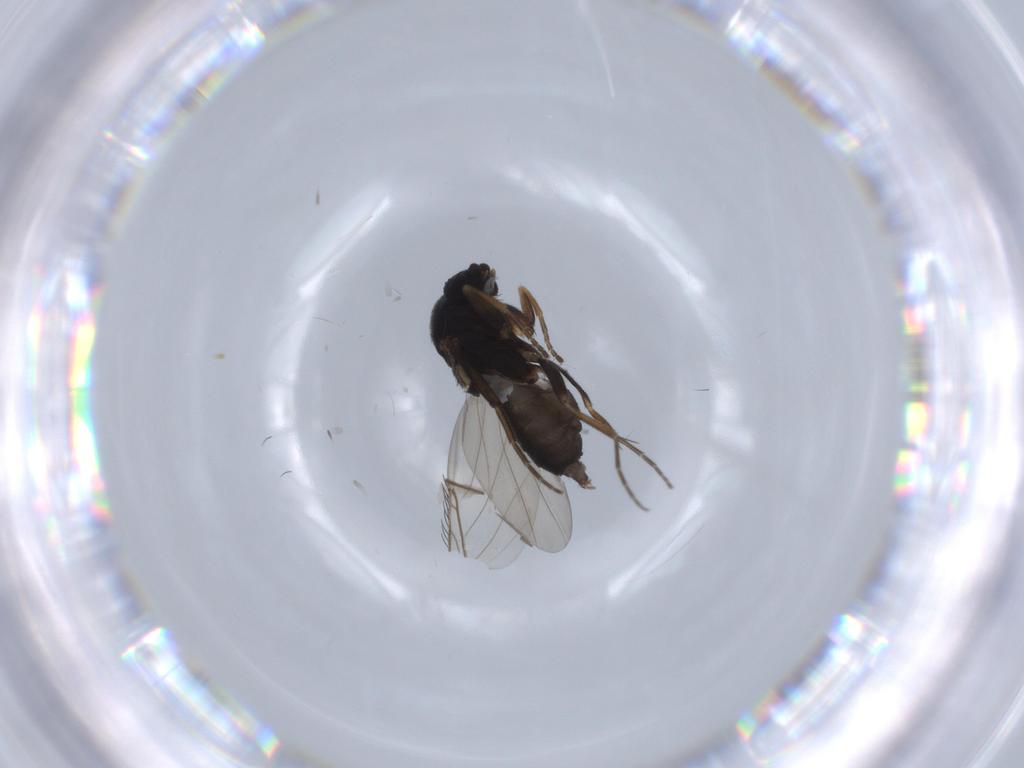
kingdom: Animalia
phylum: Arthropoda
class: Insecta
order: Diptera
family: Phoridae
